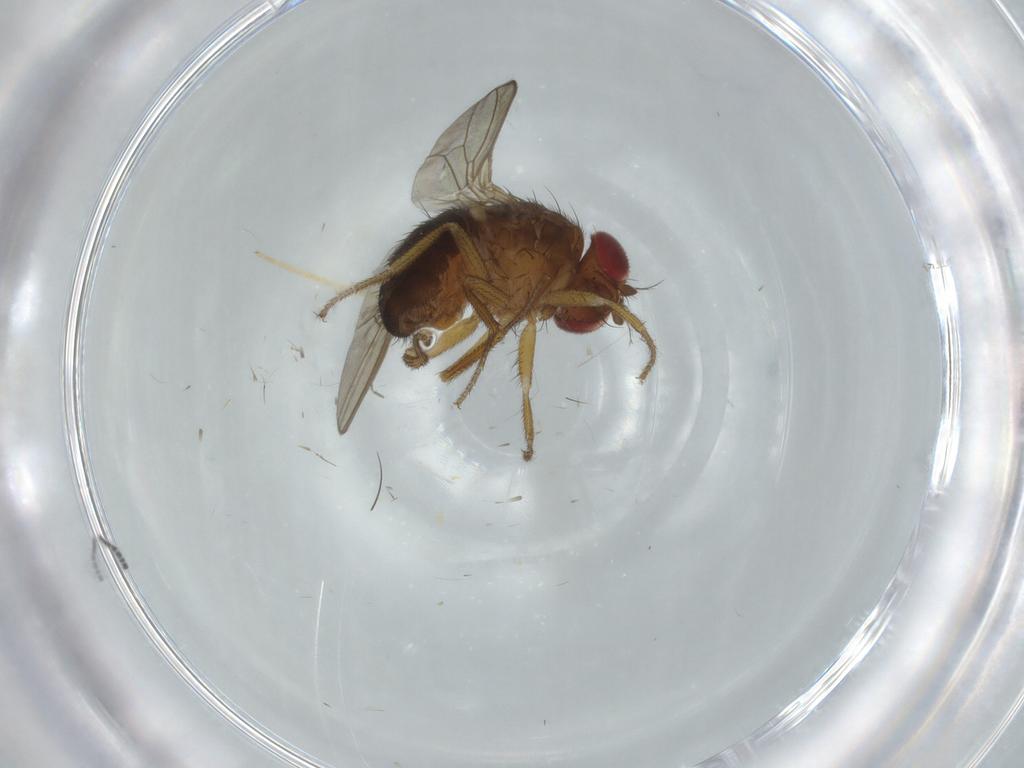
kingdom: Animalia
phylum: Arthropoda
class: Insecta
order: Diptera
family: Drosophilidae
